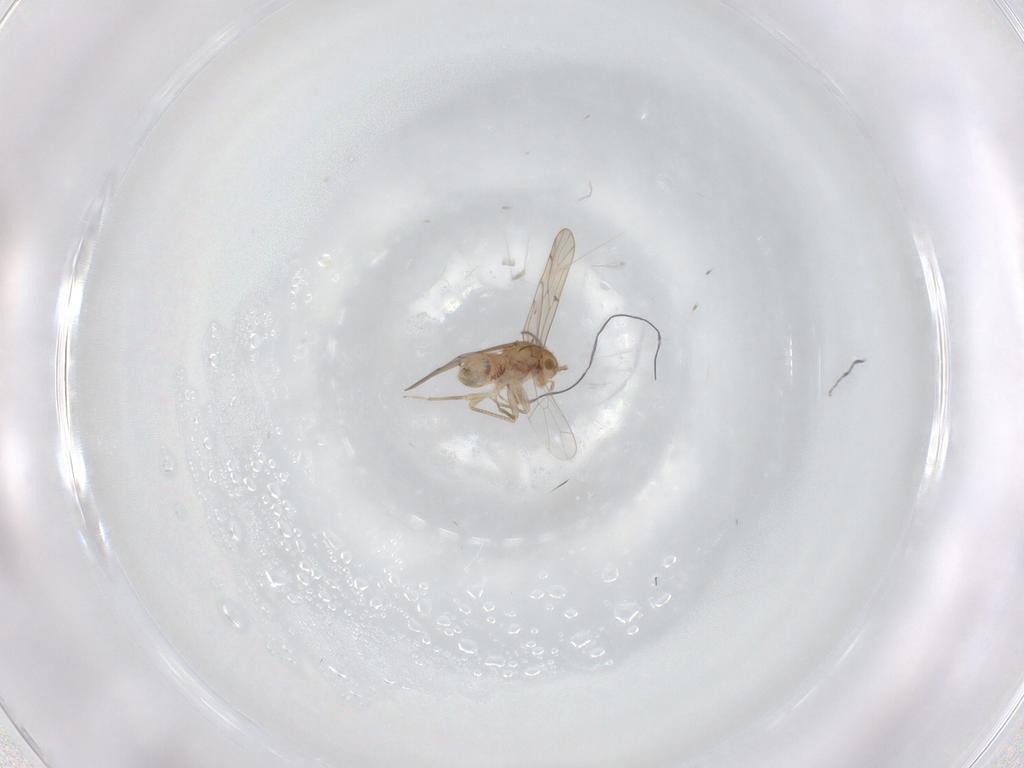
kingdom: Animalia
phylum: Arthropoda
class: Insecta
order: Psocodea
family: Ectopsocidae
